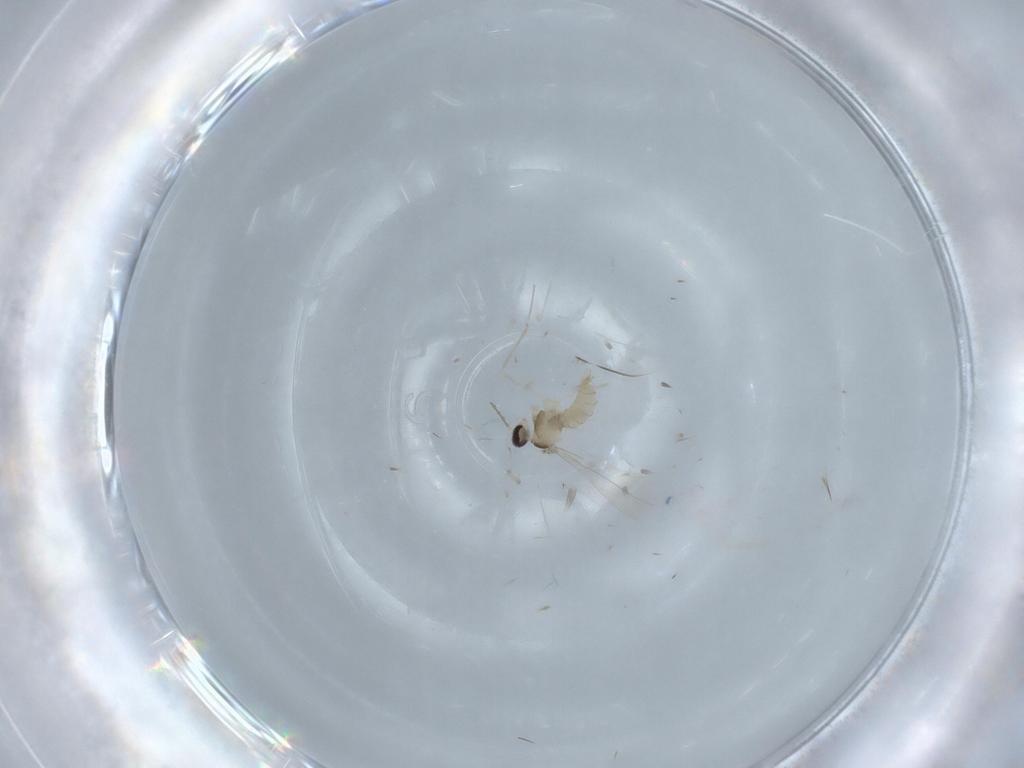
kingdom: Animalia
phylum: Arthropoda
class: Insecta
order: Diptera
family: Cecidomyiidae
